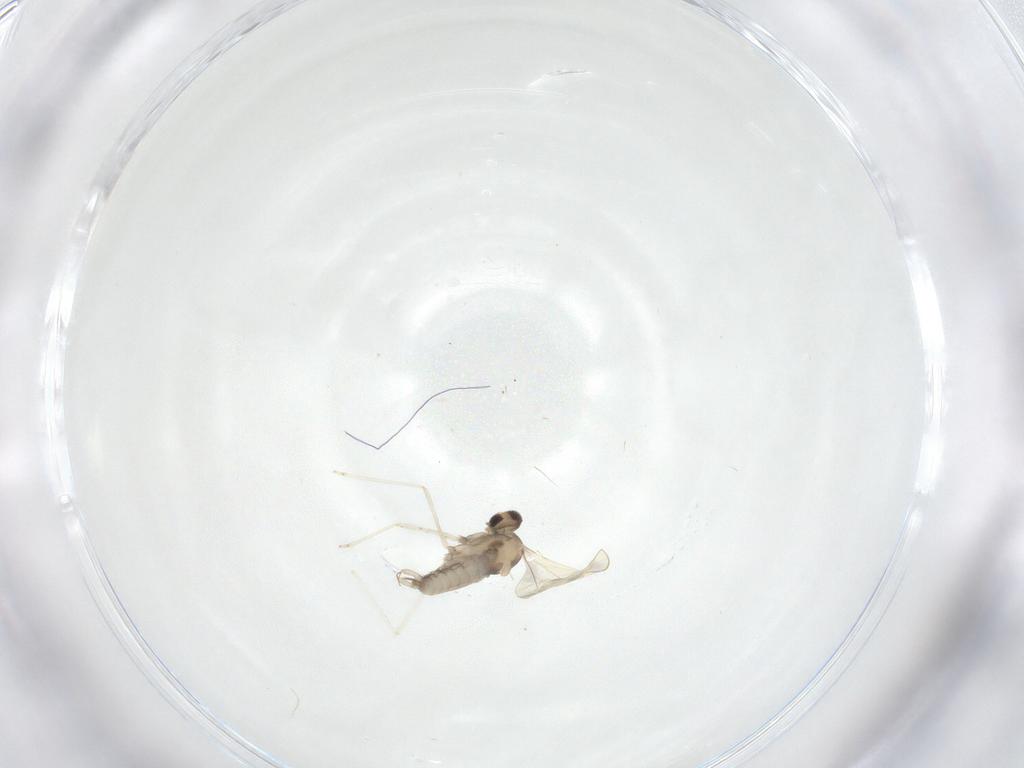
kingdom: Animalia
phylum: Arthropoda
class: Insecta
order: Diptera
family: Cecidomyiidae
